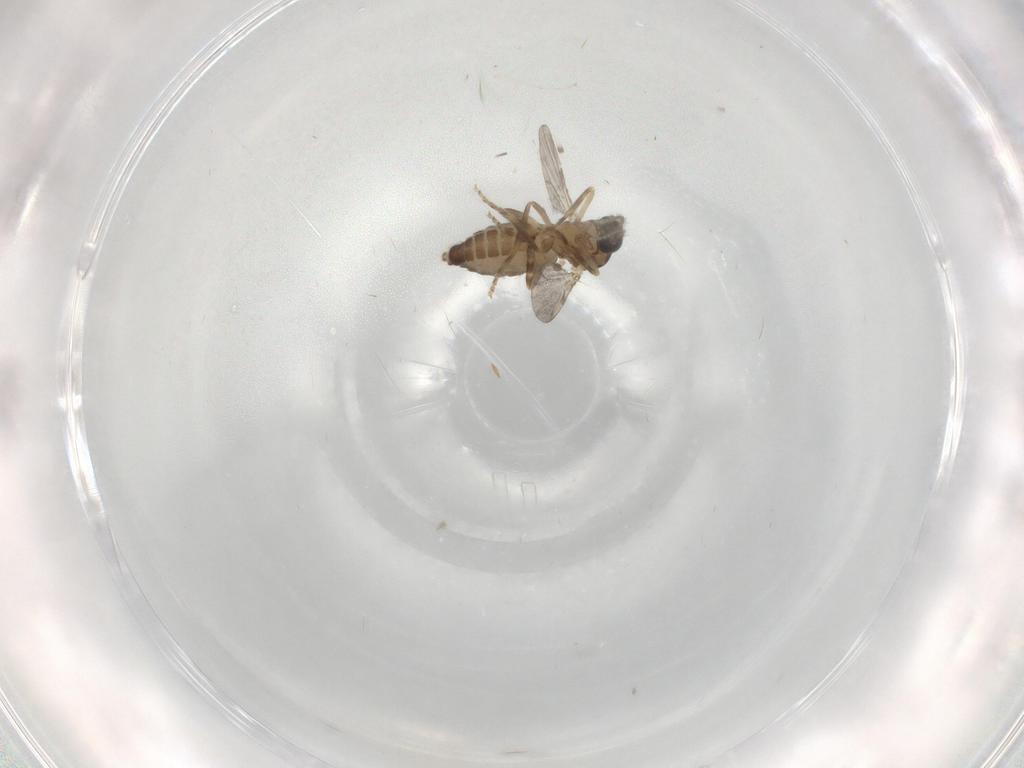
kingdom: Animalia
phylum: Arthropoda
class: Insecta
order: Diptera
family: Ceratopogonidae
